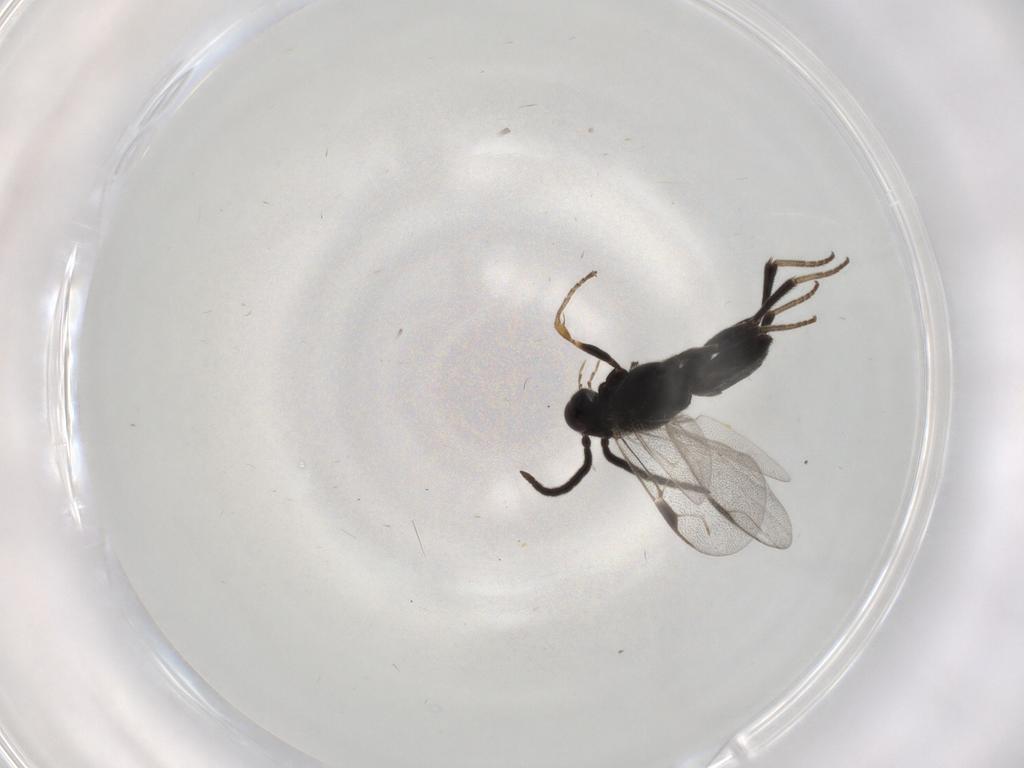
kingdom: Animalia
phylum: Arthropoda
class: Insecta
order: Hymenoptera
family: Dryinidae
